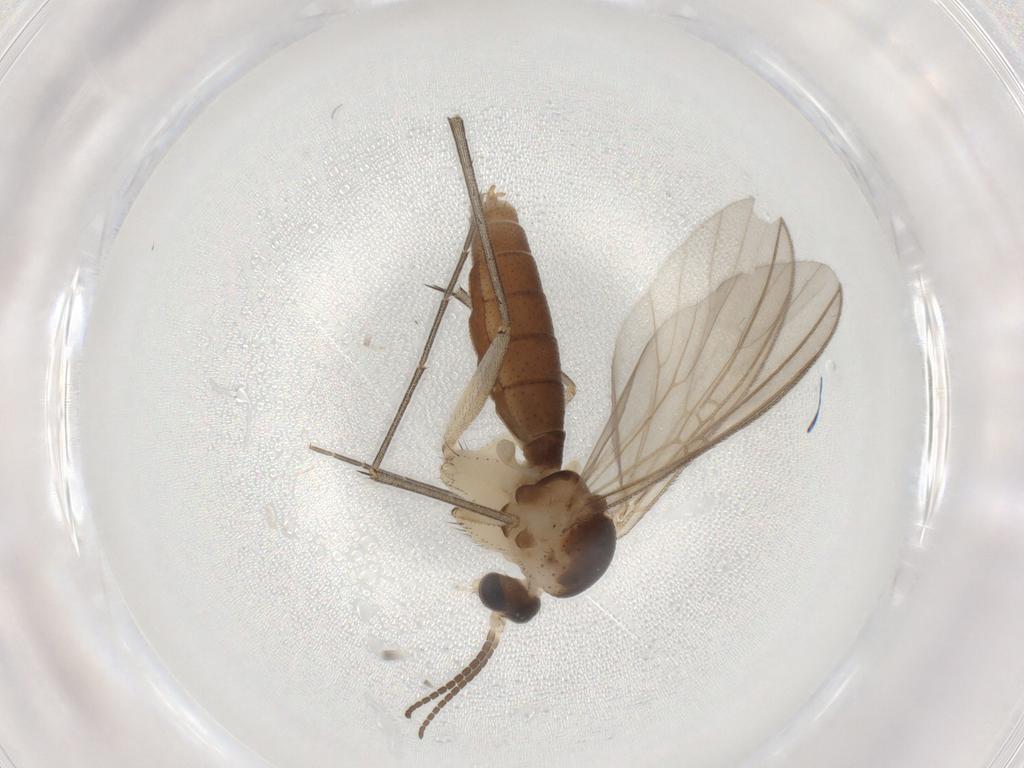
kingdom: Animalia
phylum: Arthropoda
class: Insecta
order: Diptera
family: Mycetophilidae
